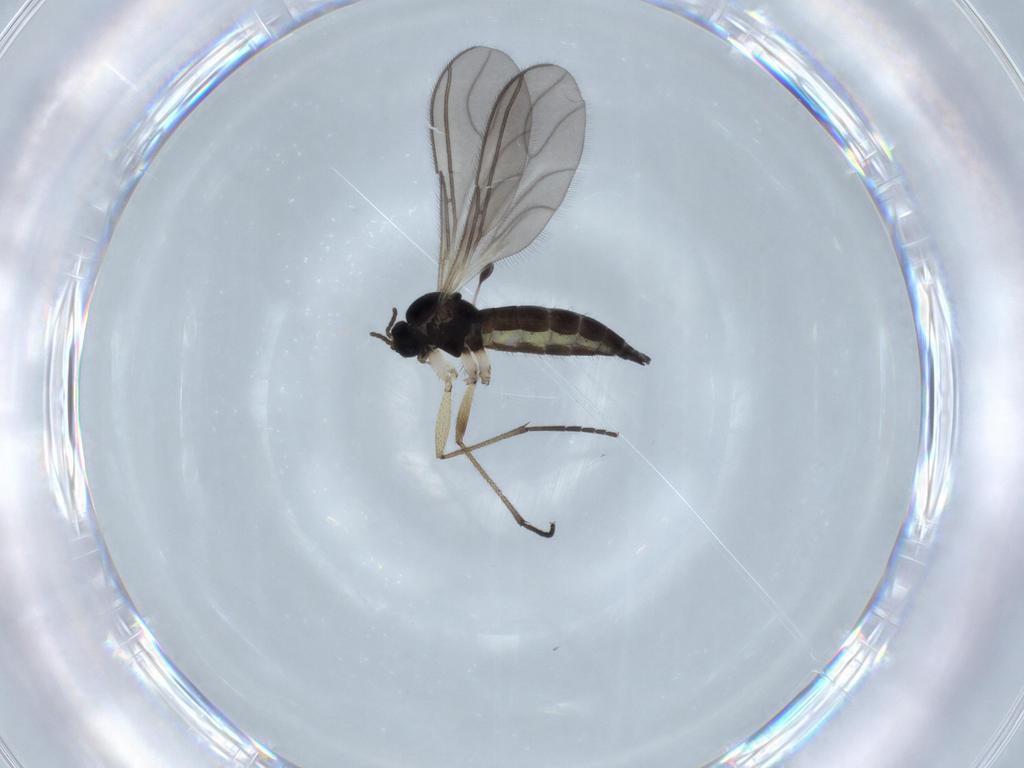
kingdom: Animalia
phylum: Arthropoda
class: Insecta
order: Diptera
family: Sciaridae
